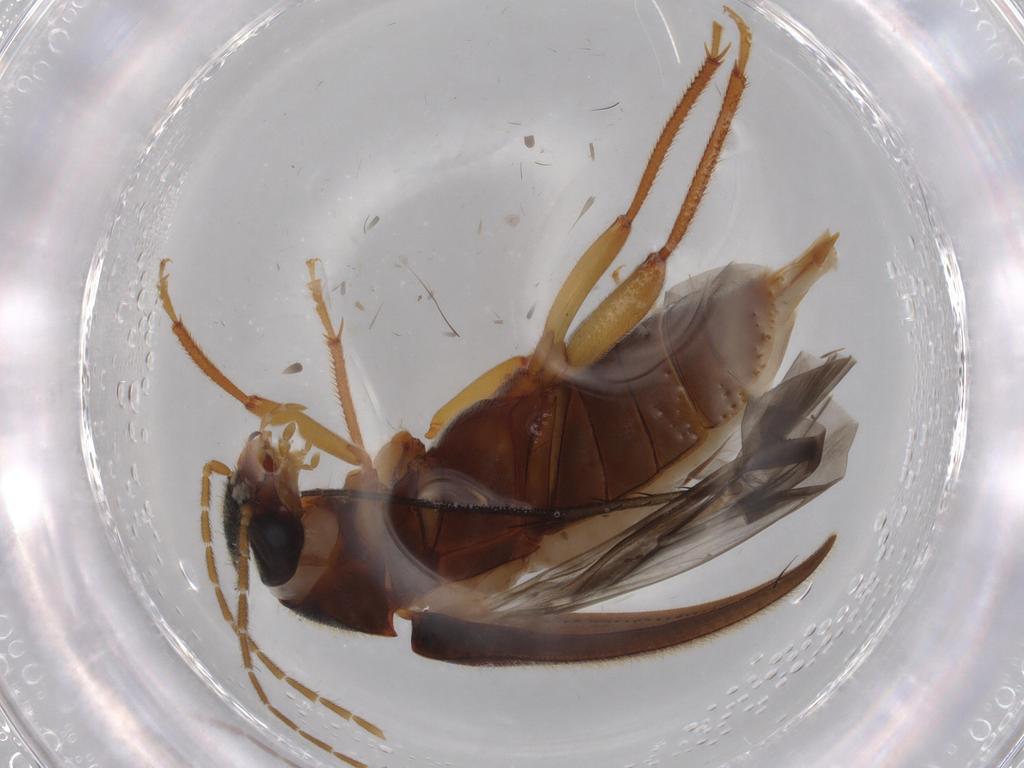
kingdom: Animalia
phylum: Arthropoda
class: Insecta
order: Coleoptera
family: Ptilodactylidae
